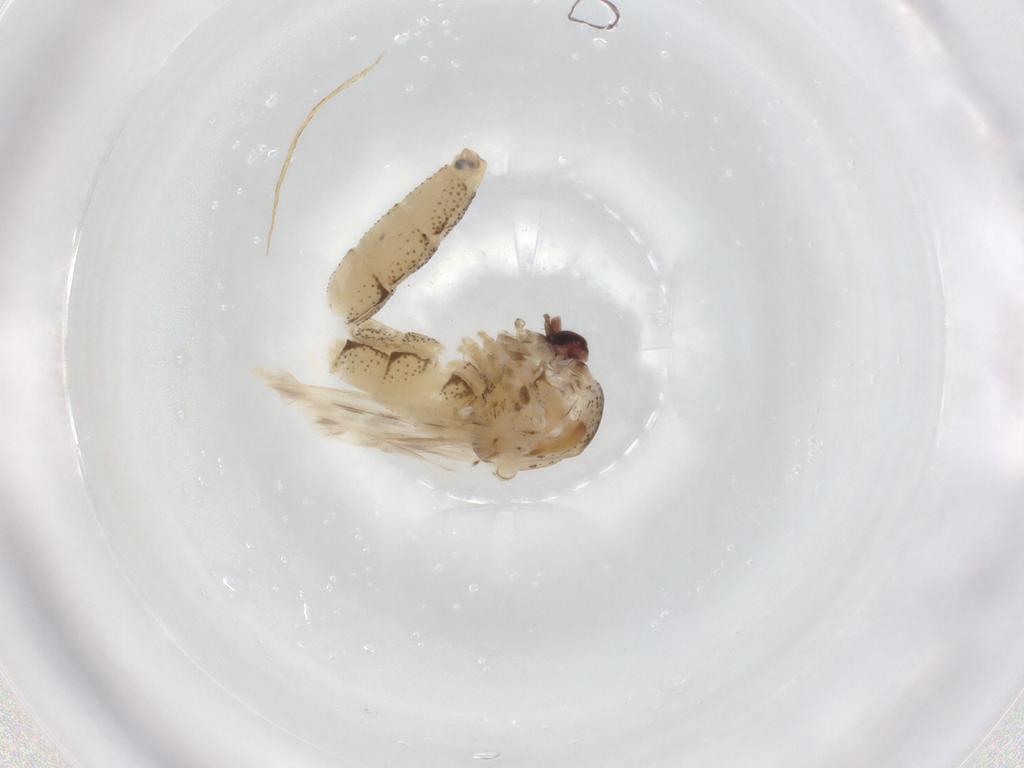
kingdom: Animalia
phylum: Arthropoda
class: Insecta
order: Diptera
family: Chaoboridae
